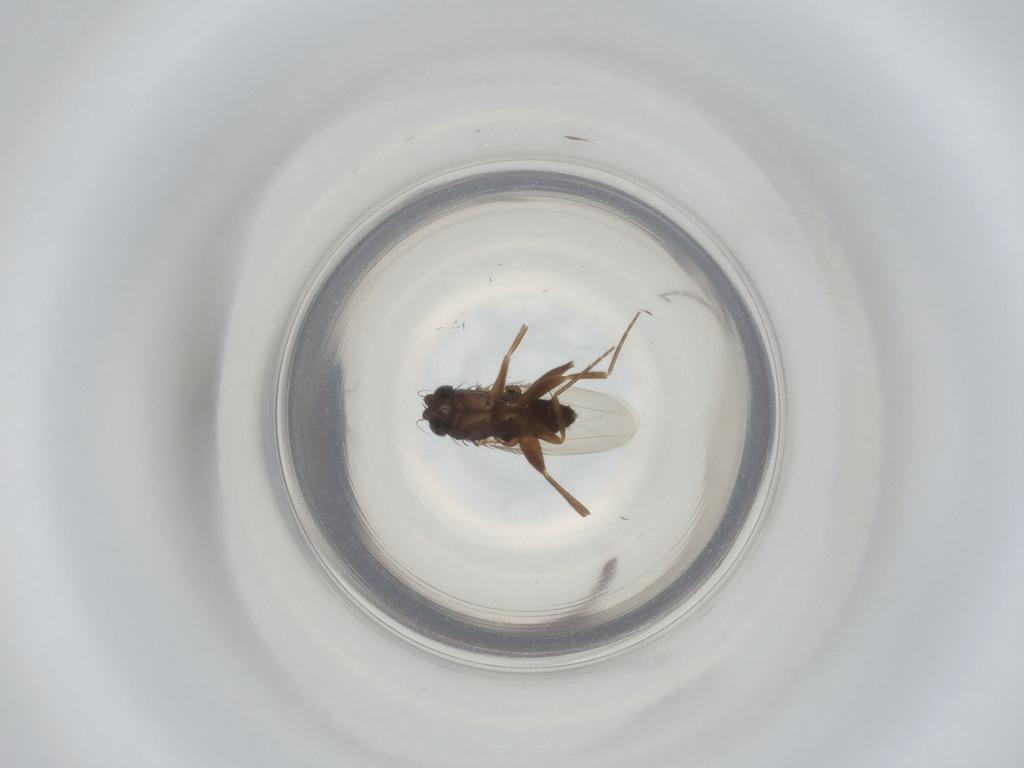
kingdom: Animalia
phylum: Arthropoda
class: Insecta
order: Diptera
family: Phoridae
